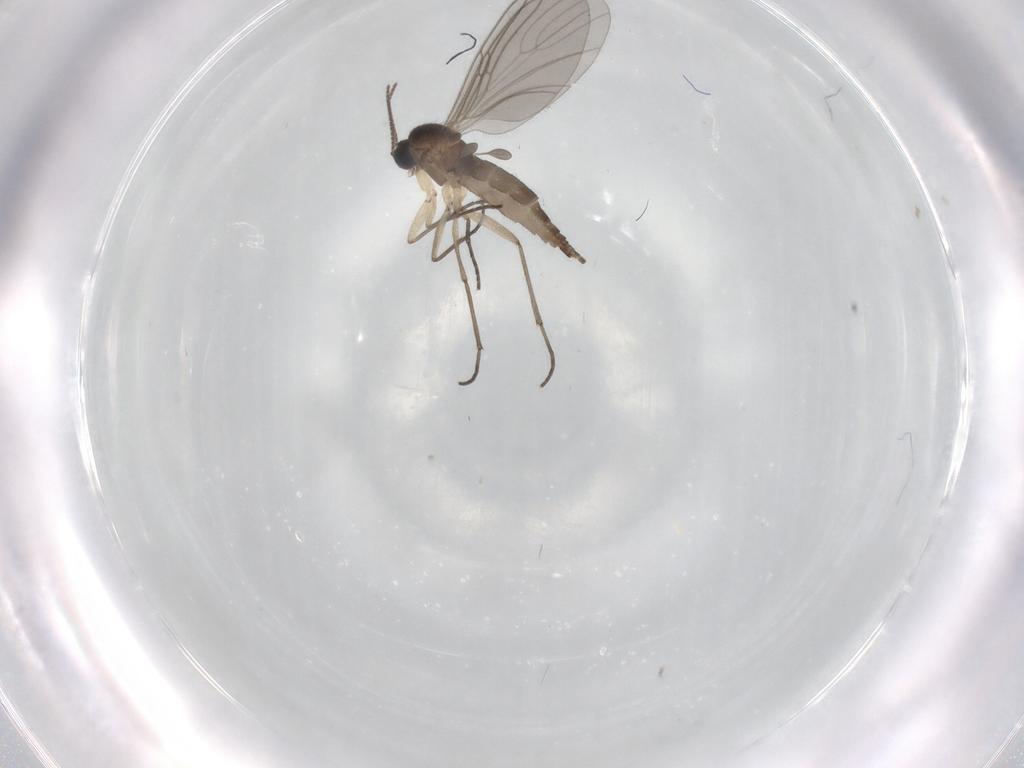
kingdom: Animalia
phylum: Arthropoda
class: Insecta
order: Diptera
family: Sciaridae
